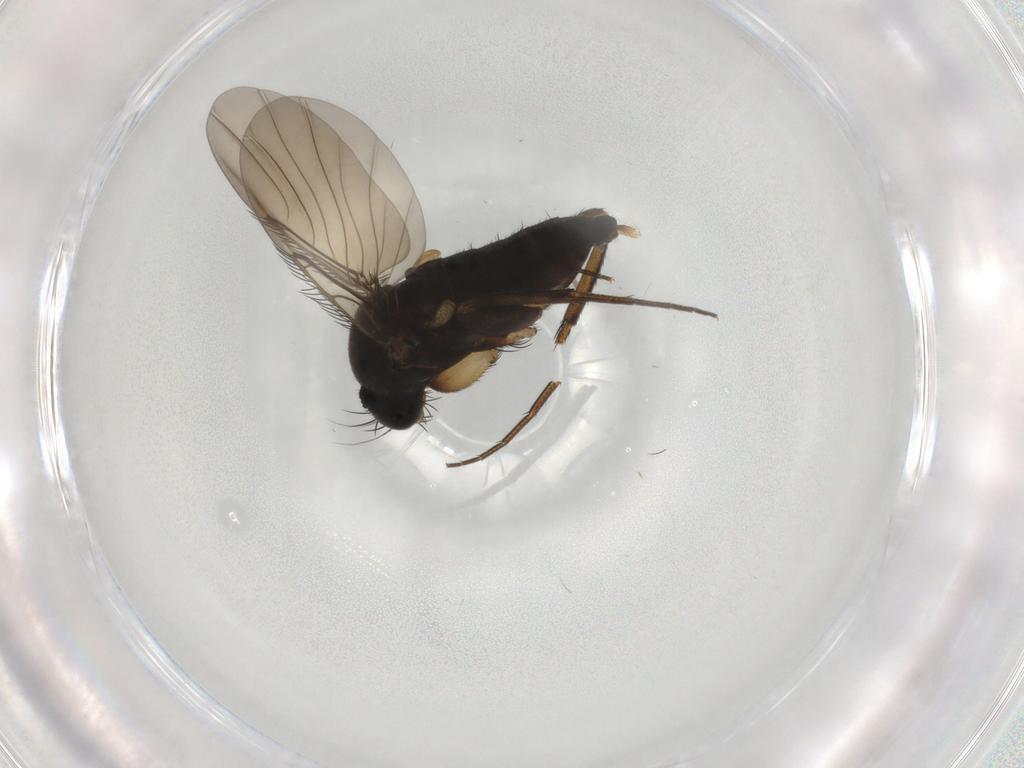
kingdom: Animalia
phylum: Arthropoda
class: Insecta
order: Diptera
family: Phoridae
